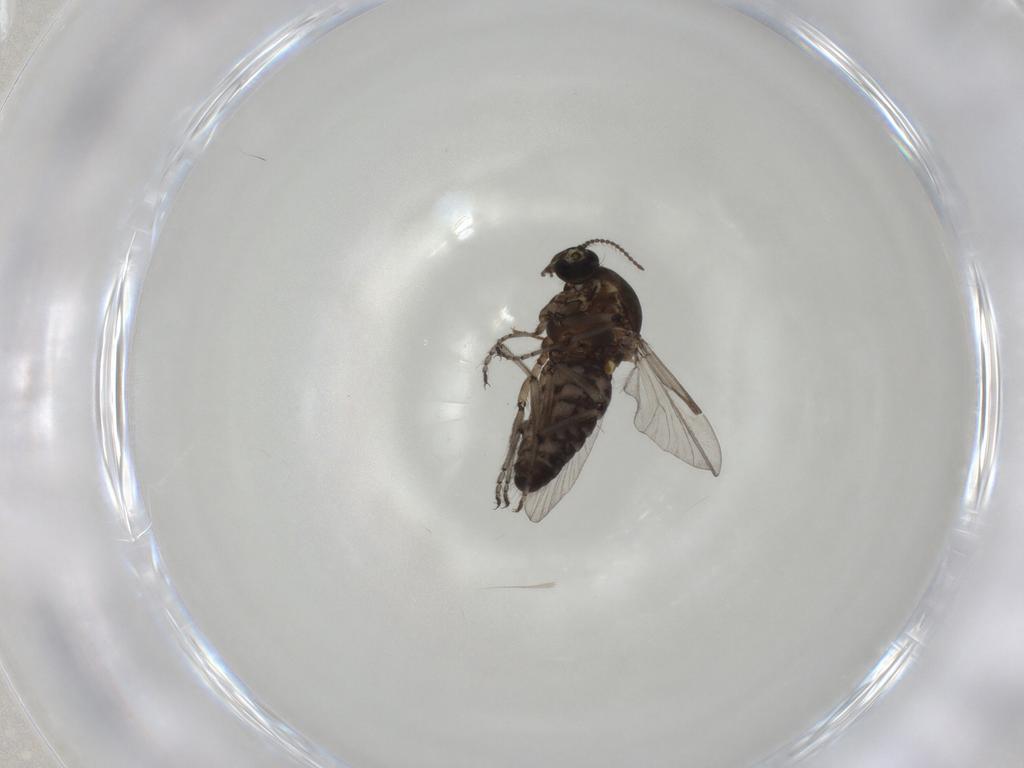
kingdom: Animalia
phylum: Arthropoda
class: Insecta
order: Diptera
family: Chironomidae
